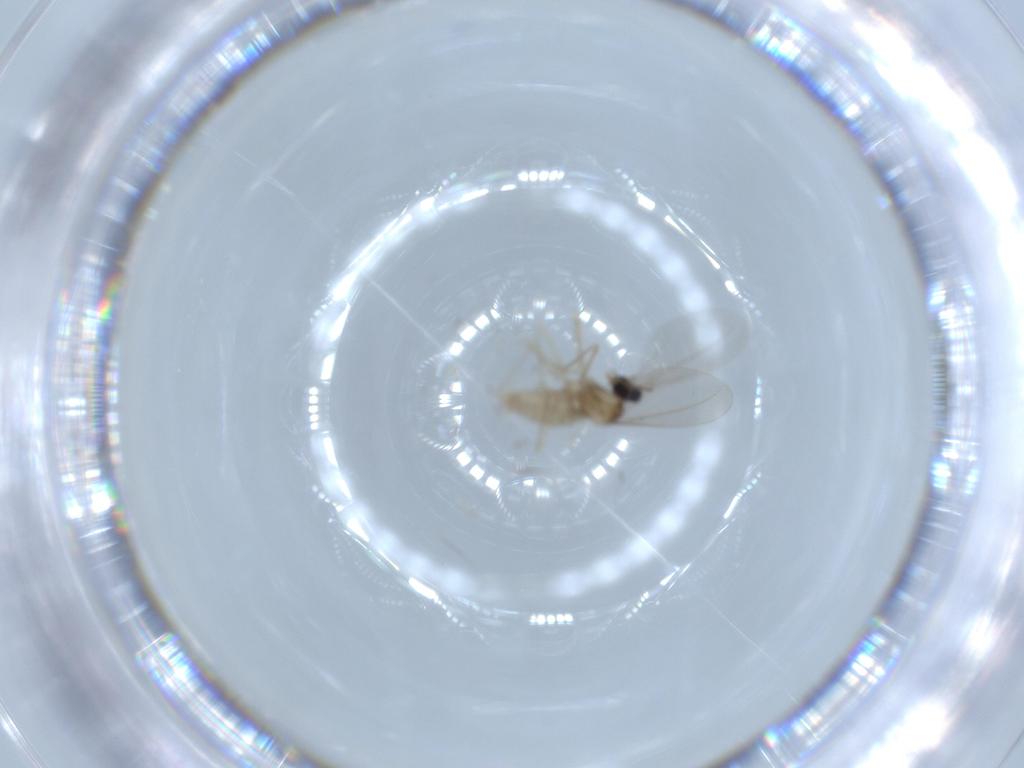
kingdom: Animalia
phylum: Arthropoda
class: Insecta
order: Diptera
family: Cecidomyiidae
